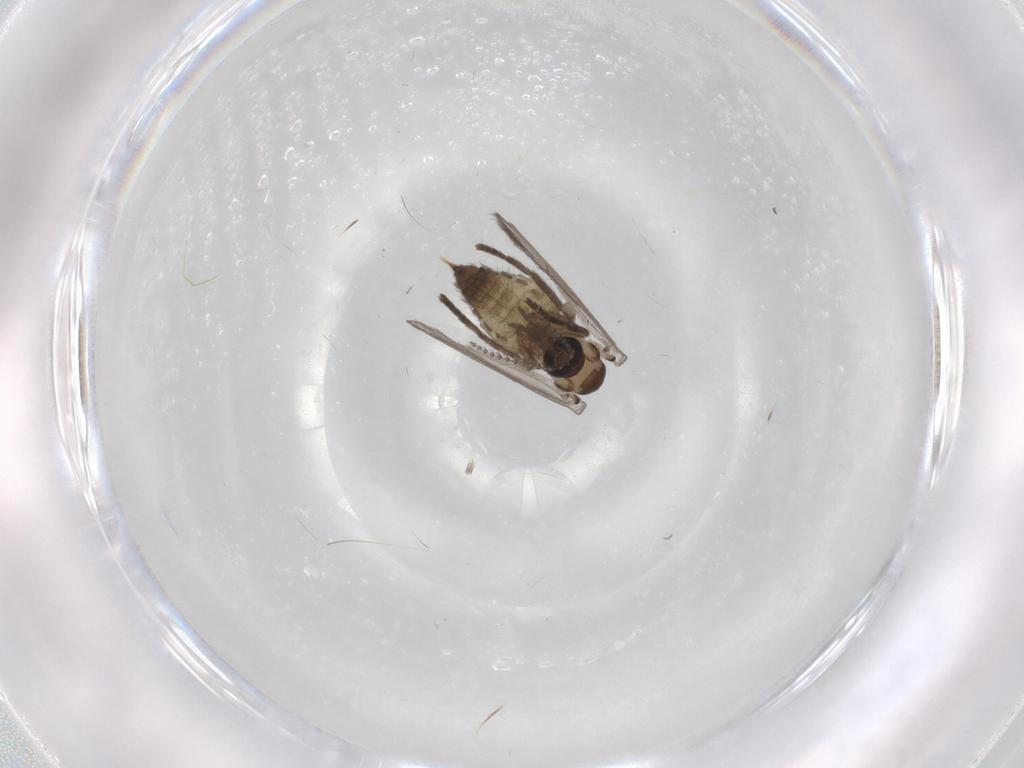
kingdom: Animalia
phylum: Arthropoda
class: Insecta
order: Diptera
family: Psychodidae
